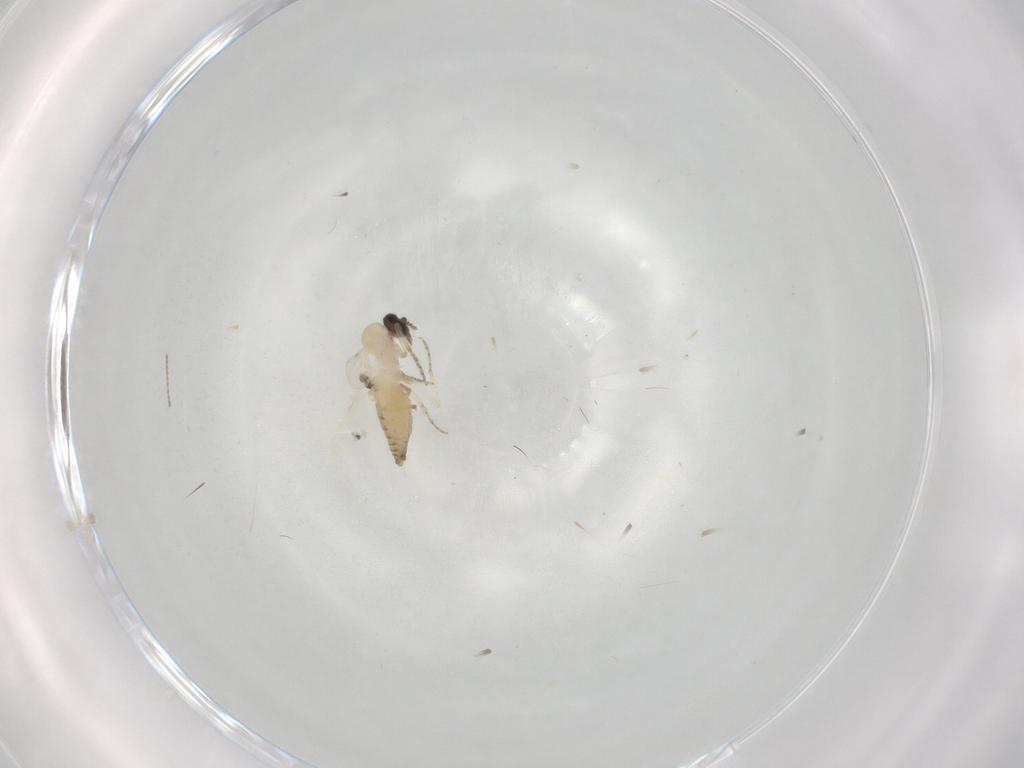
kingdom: Animalia
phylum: Arthropoda
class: Insecta
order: Diptera
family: Ceratopogonidae
